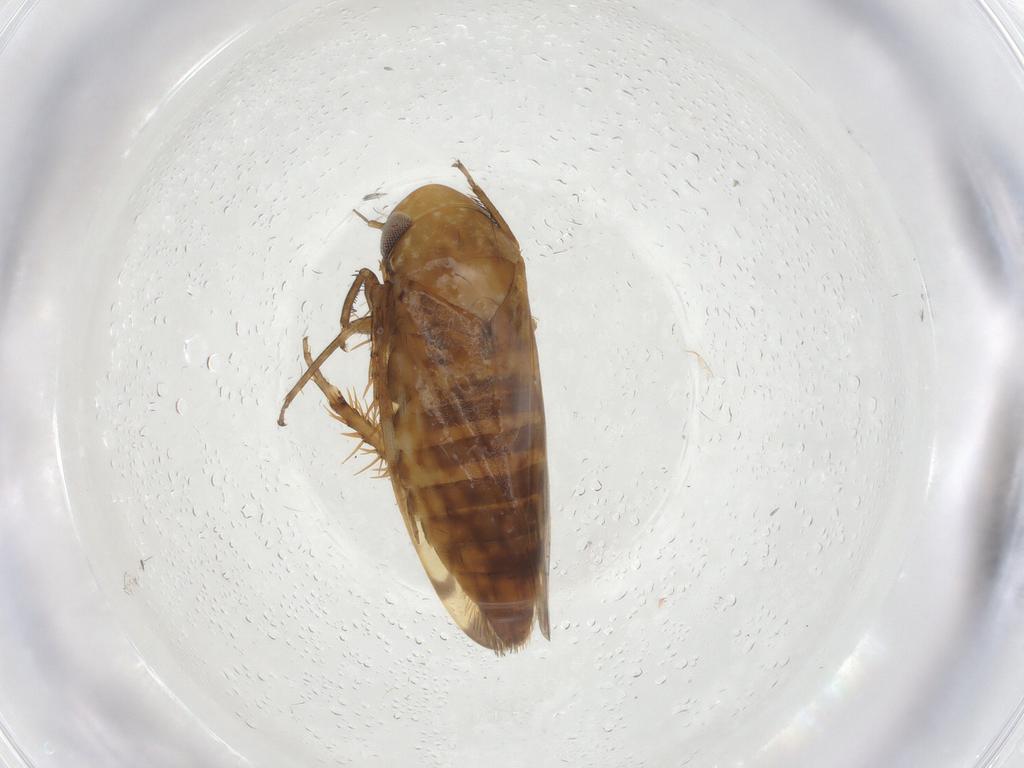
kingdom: Animalia
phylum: Arthropoda
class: Insecta
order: Hemiptera
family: Cicadellidae
